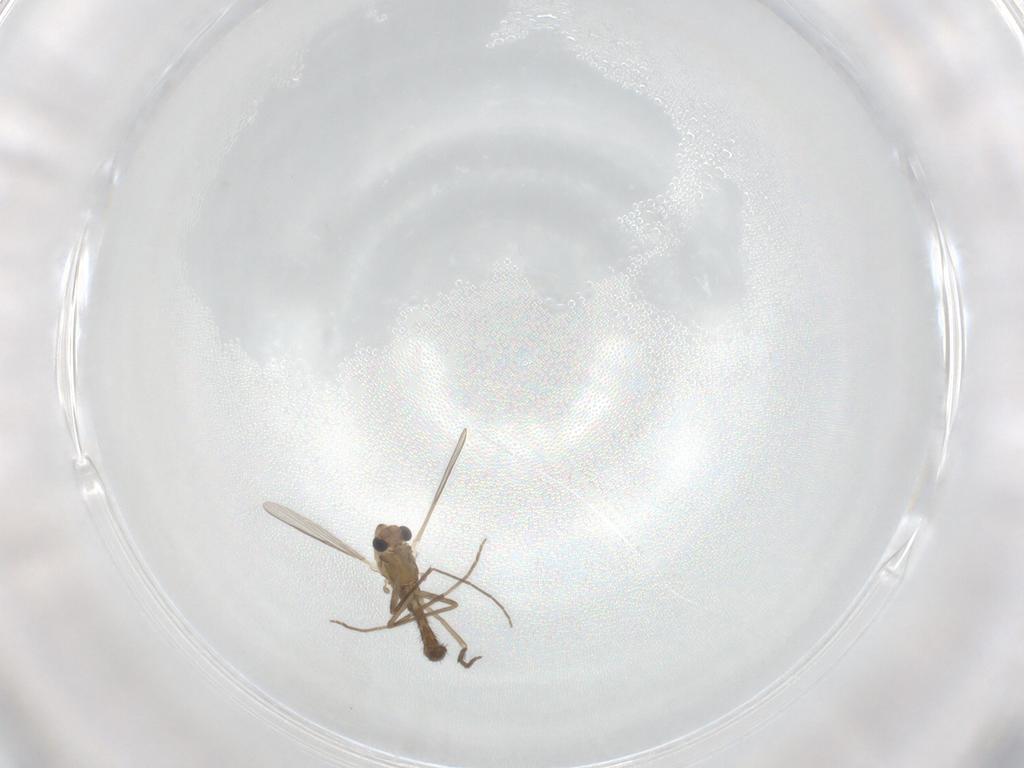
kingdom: Animalia
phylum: Arthropoda
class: Insecta
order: Diptera
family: Chironomidae
